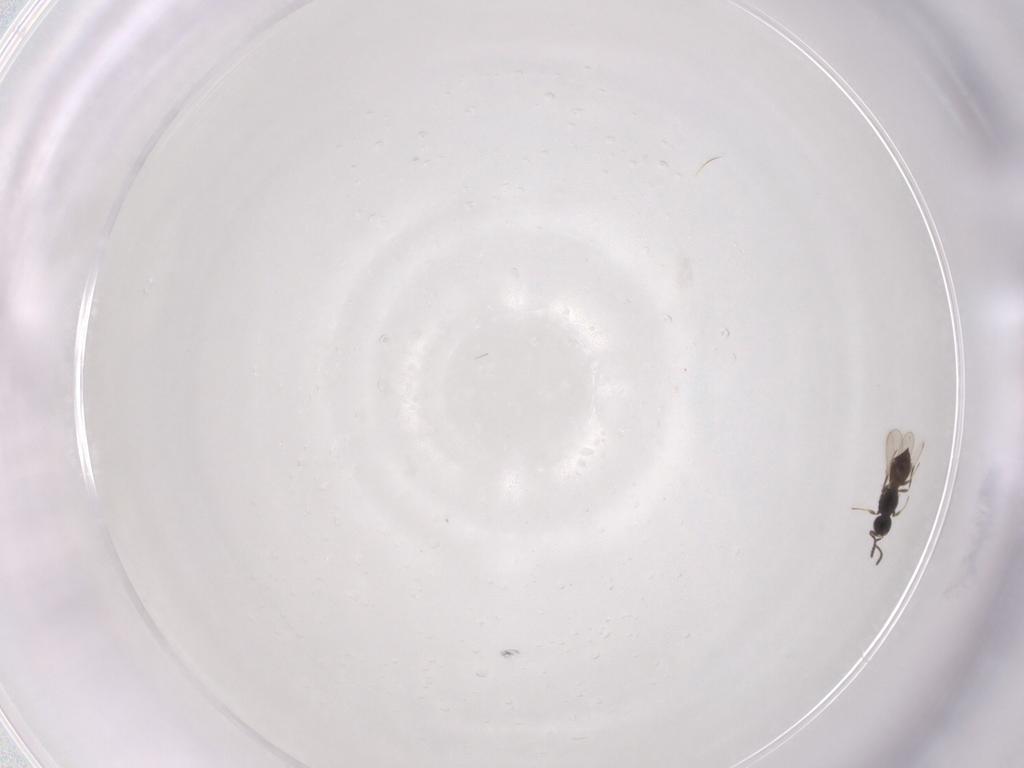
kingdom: Animalia
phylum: Arthropoda
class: Insecta
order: Hymenoptera
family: Scelionidae
